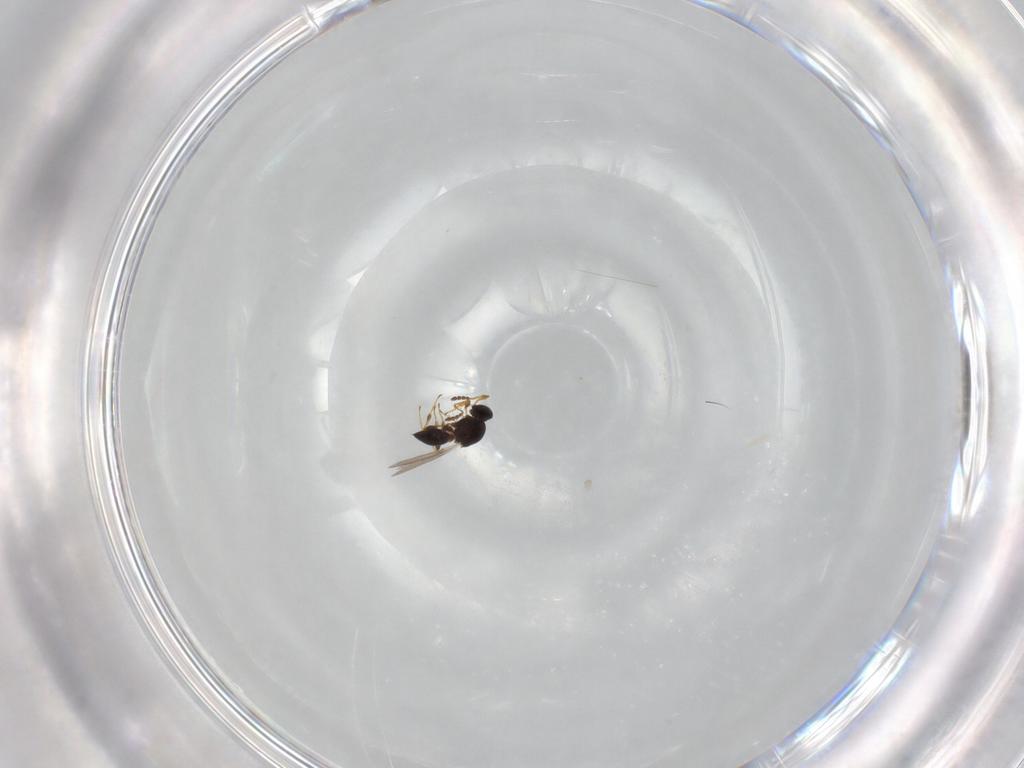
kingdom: Animalia
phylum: Arthropoda
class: Insecta
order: Hymenoptera
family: Platygastridae
